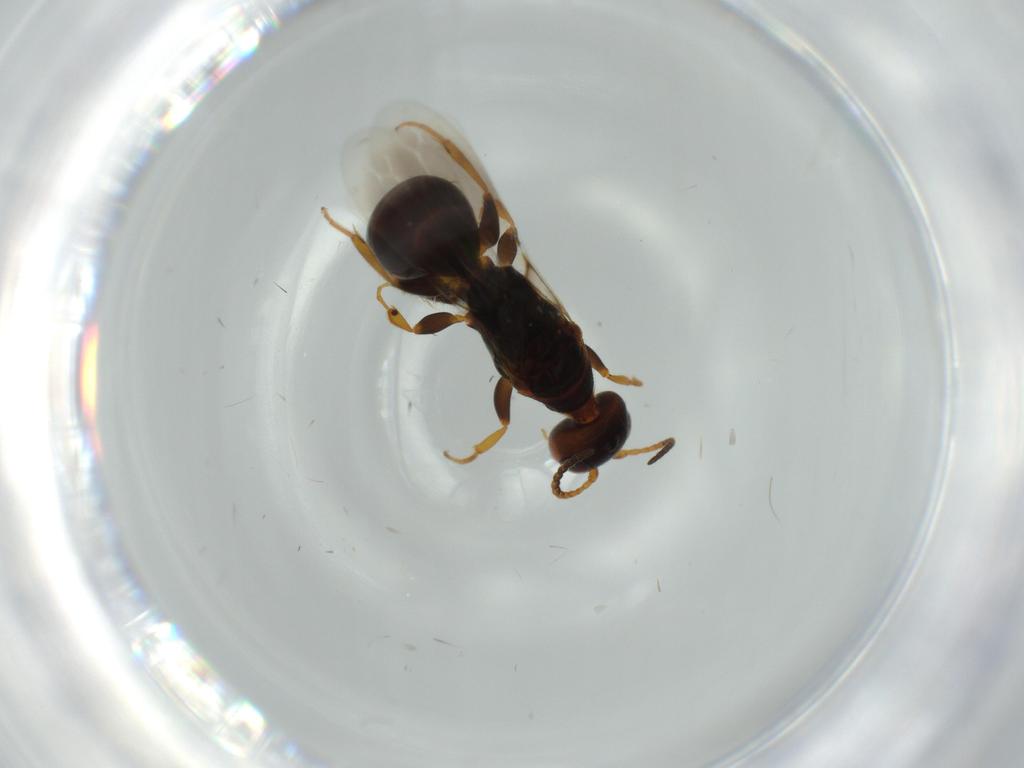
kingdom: Animalia
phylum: Arthropoda
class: Insecta
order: Hymenoptera
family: Bethylidae
